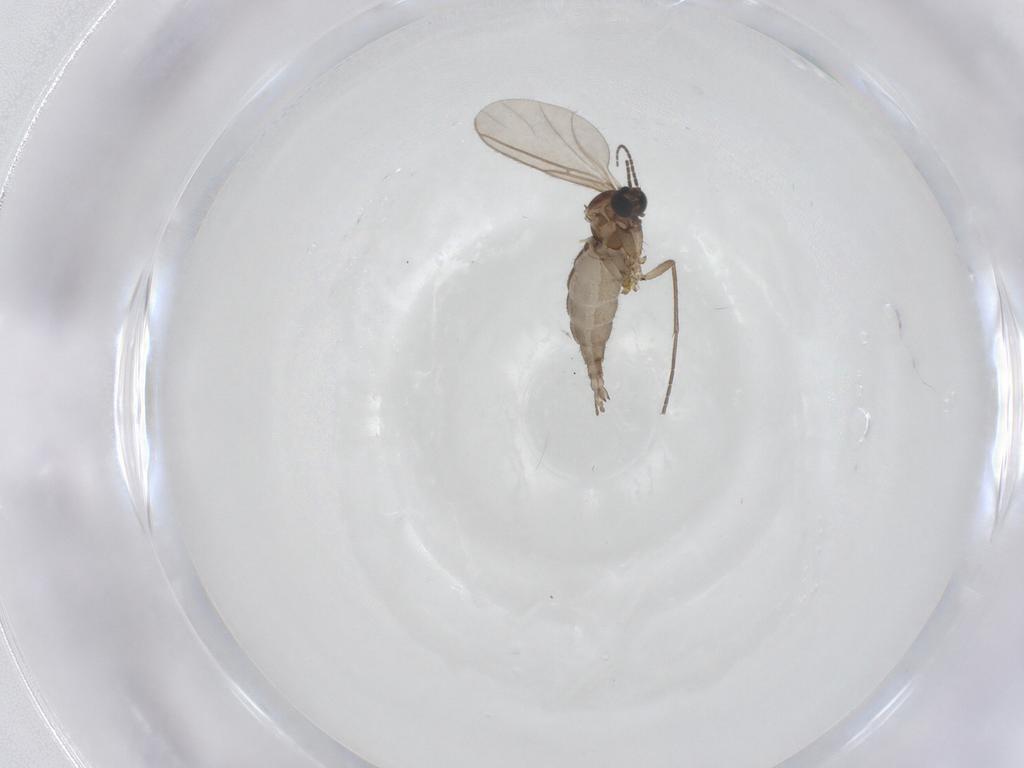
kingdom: Animalia
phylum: Arthropoda
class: Insecta
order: Diptera
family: Sciaridae
